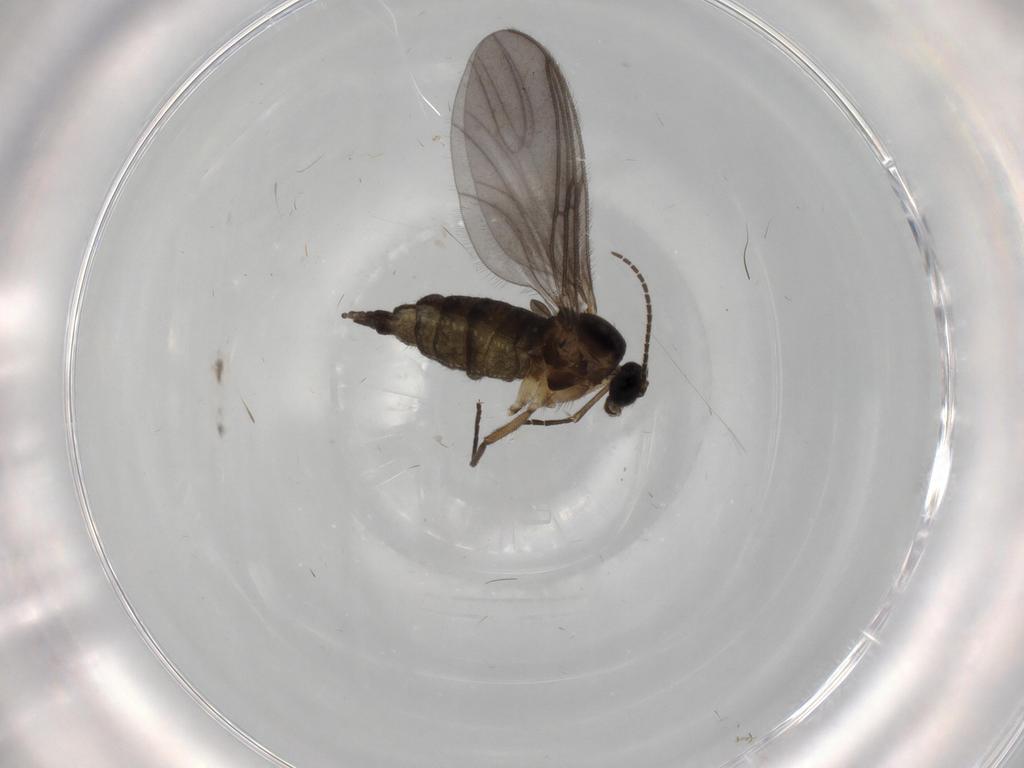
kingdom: Animalia
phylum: Arthropoda
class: Insecta
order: Diptera
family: Sciaridae
